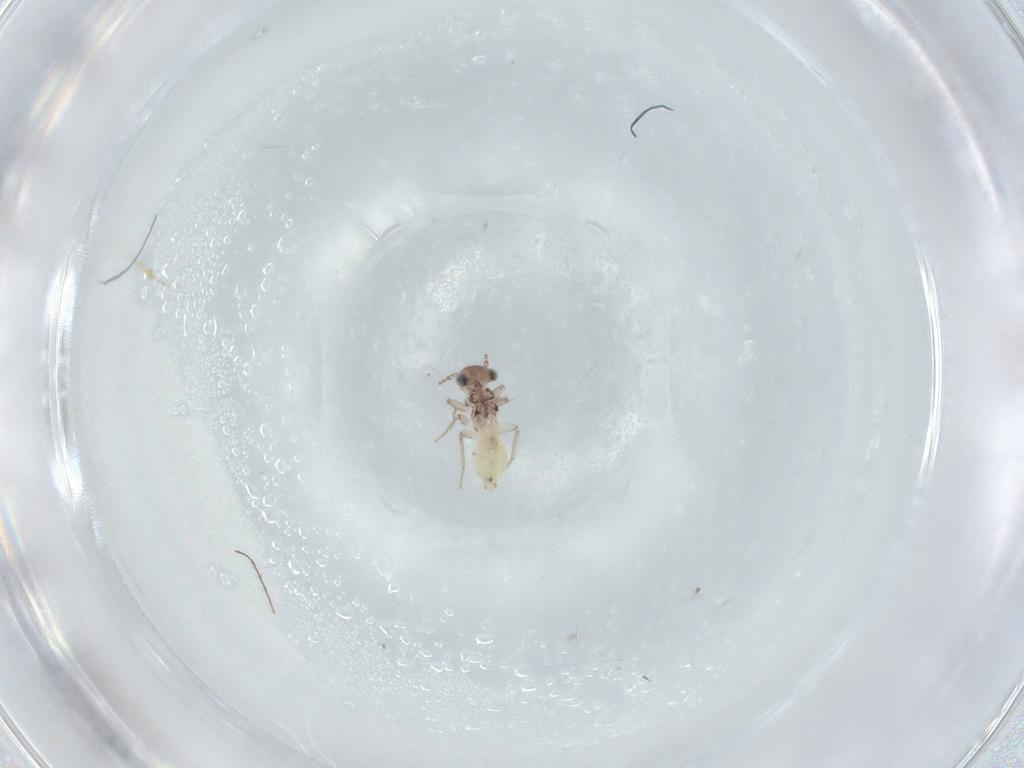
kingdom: Animalia
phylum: Arthropoda
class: Insecta
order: Psocodea
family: Lepidopsocidae
